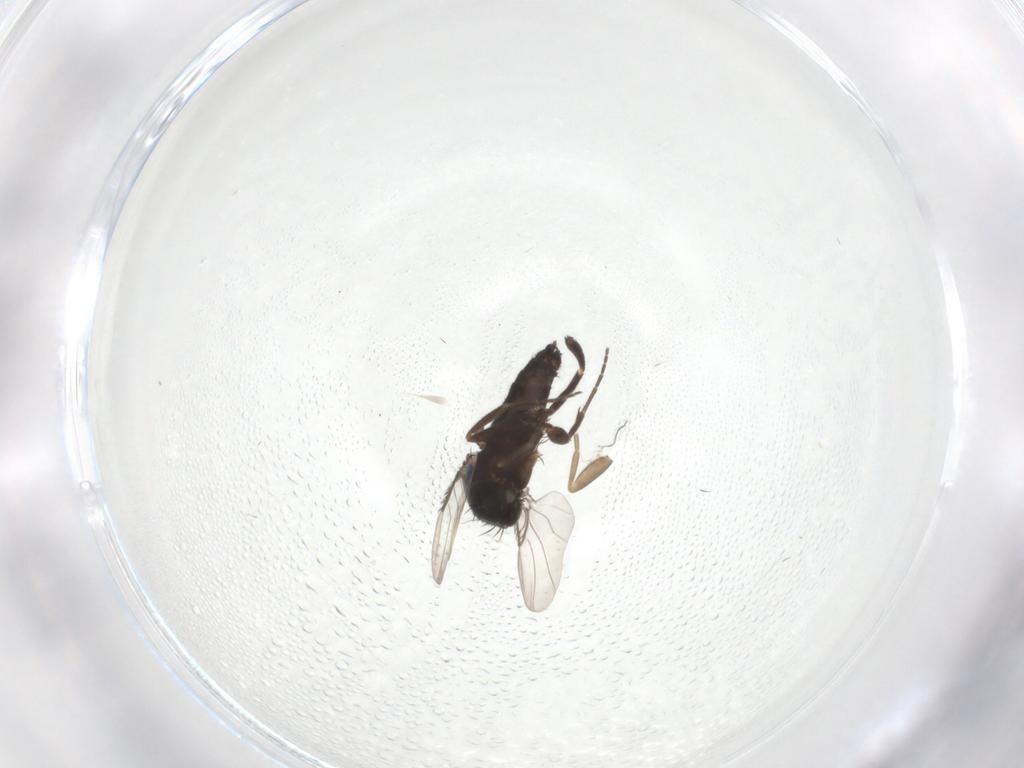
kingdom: Animalia
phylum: Arthropoda
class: Insecta
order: Diptera
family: Cecidomyiidae
